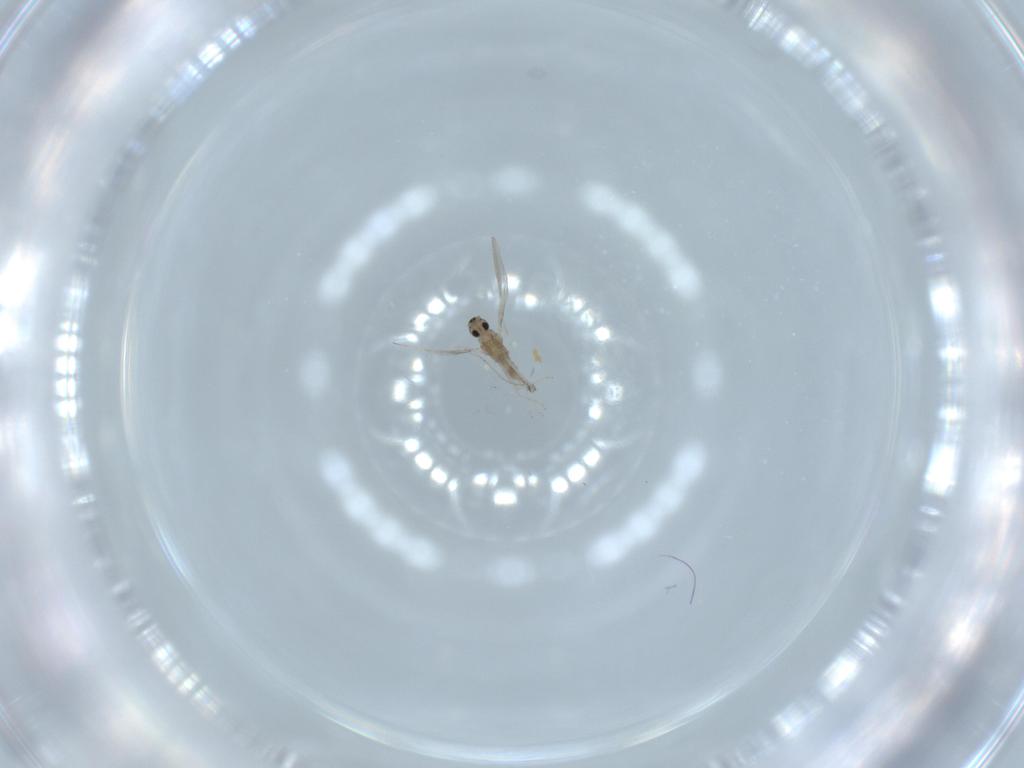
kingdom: Animalia
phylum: Arthropoda
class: Insecta
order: Diptera
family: Cecidomyiidae
